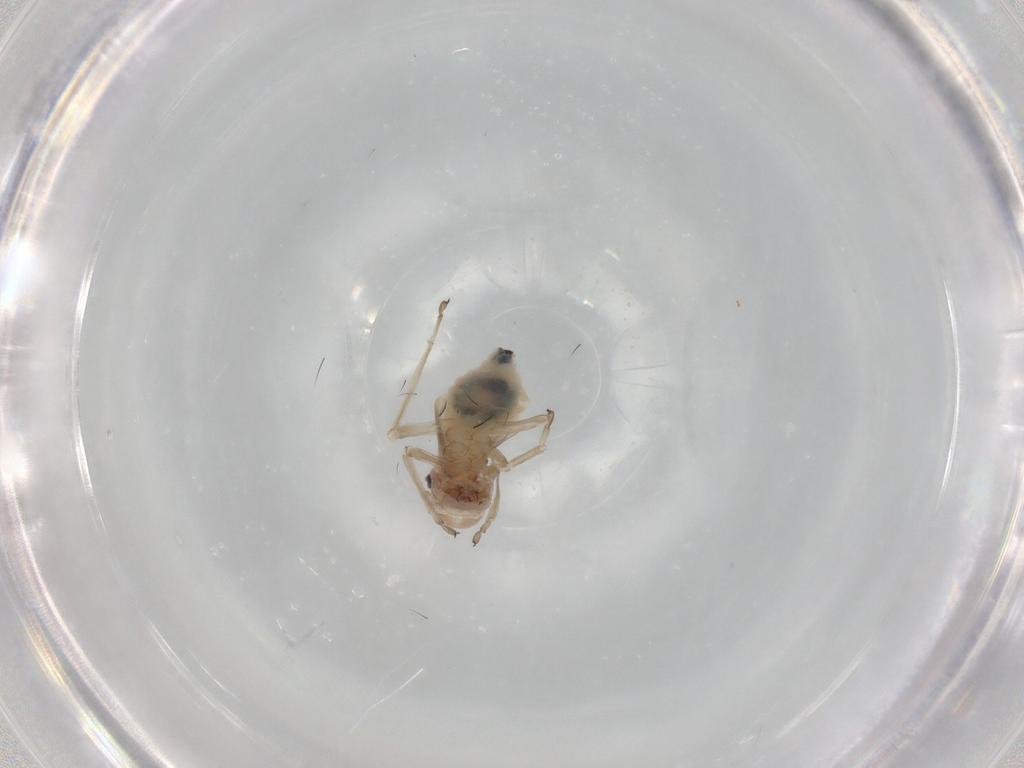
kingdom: Animalia
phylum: Arthropoda
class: Insecta
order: Psocodea
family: Stenopsocidae
